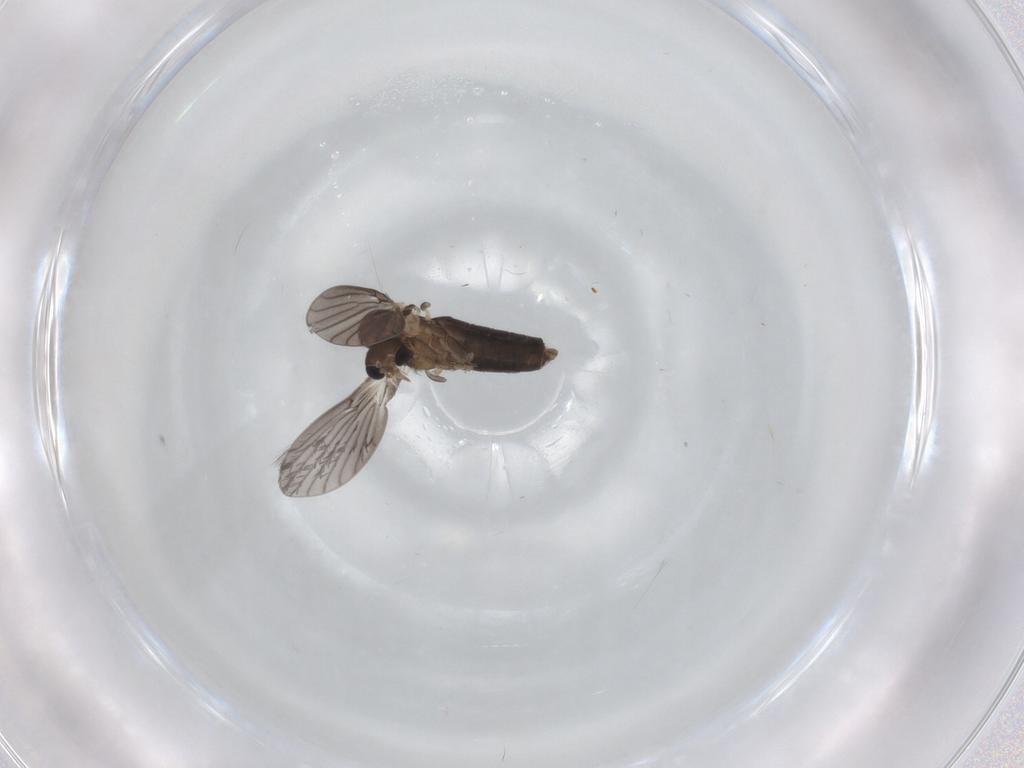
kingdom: Animalia
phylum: Arthropoda
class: Insecta
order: Diptera
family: Psychodidae
